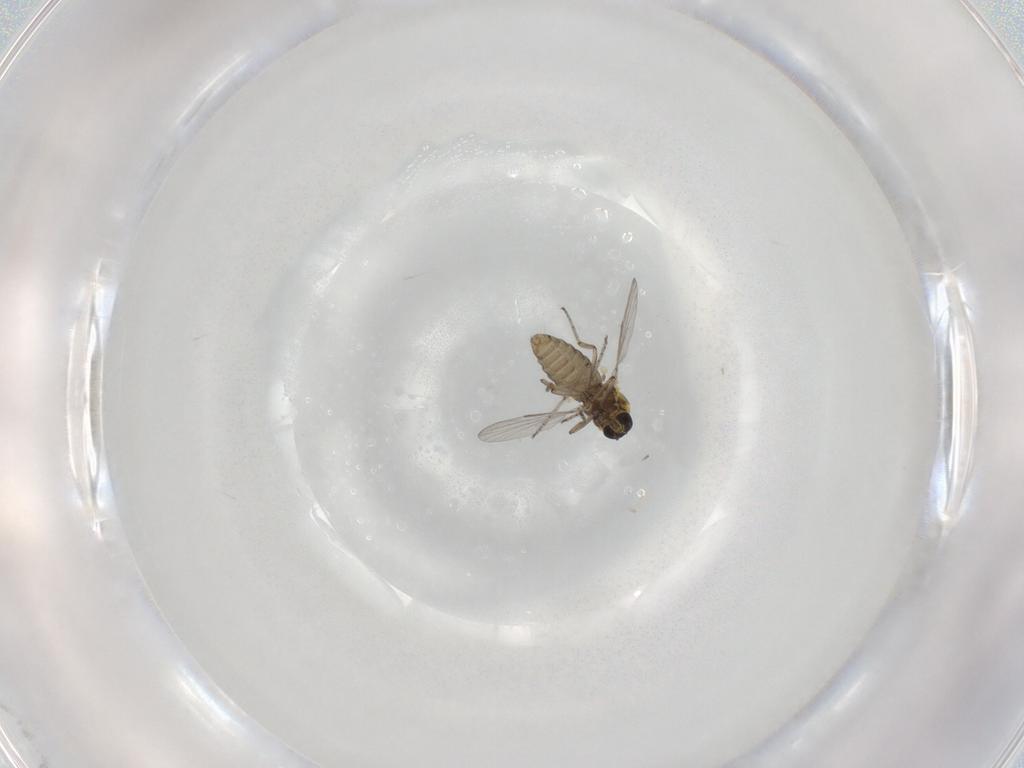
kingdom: Animalia
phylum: Arthropoda
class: Insecta
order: Diptera
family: Ceratopogonidae
